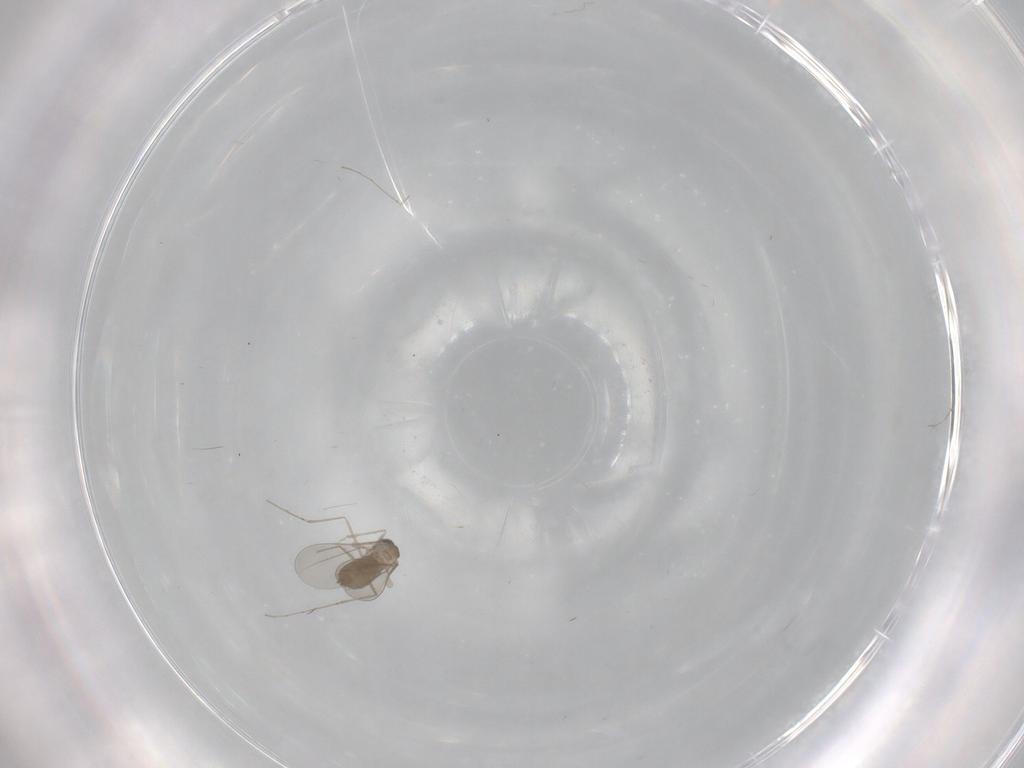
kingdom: Animalia
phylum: Arthropoda
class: Insecta
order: Diptera
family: Cecidomyiidae
